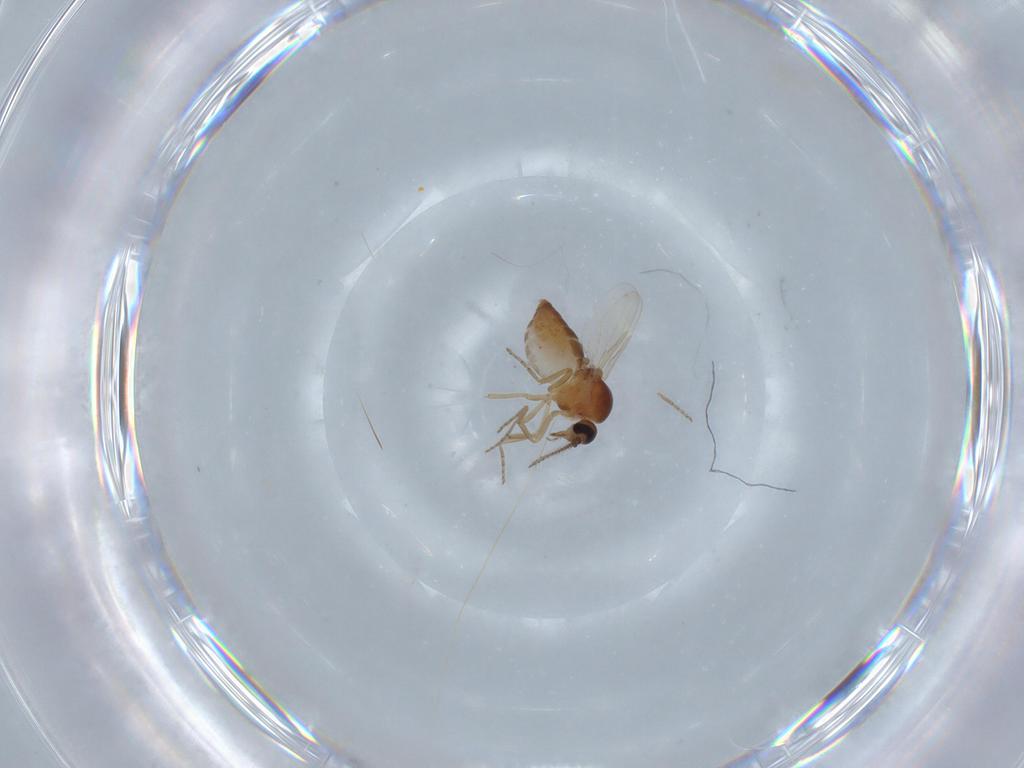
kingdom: Animalia
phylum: Arthropoda
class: Insecta
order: Diptera
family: Ceratopogonidae
